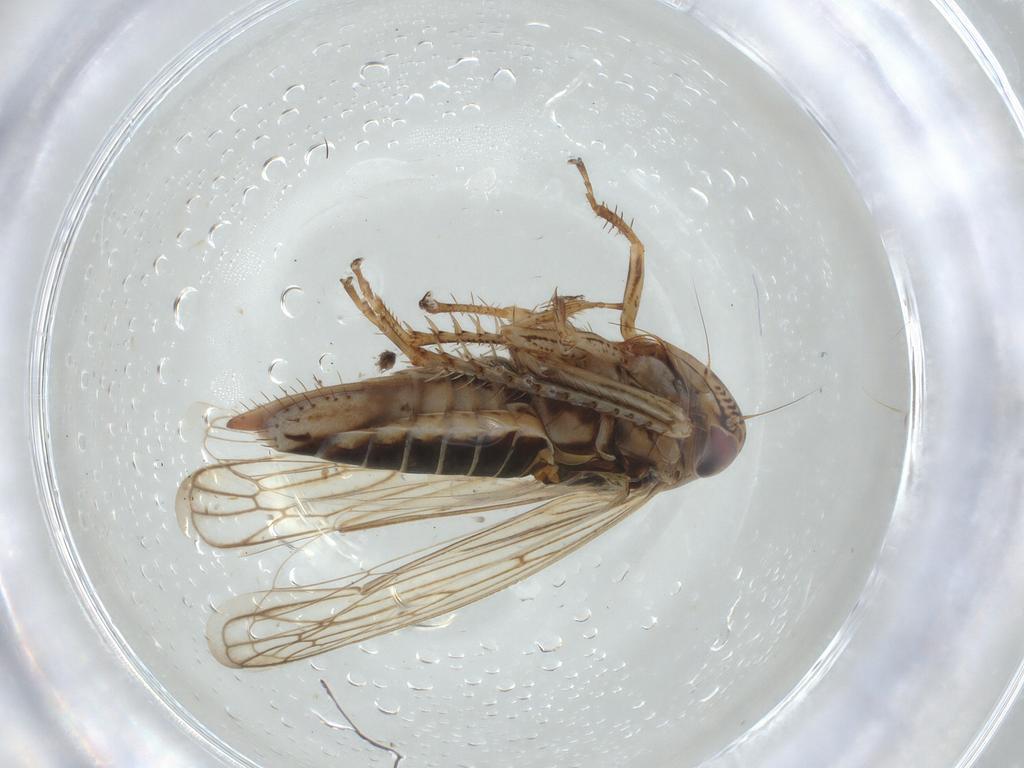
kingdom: Animalia
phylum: Arthropoda
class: Insecta
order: Hemiptera
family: Cicadellidae
